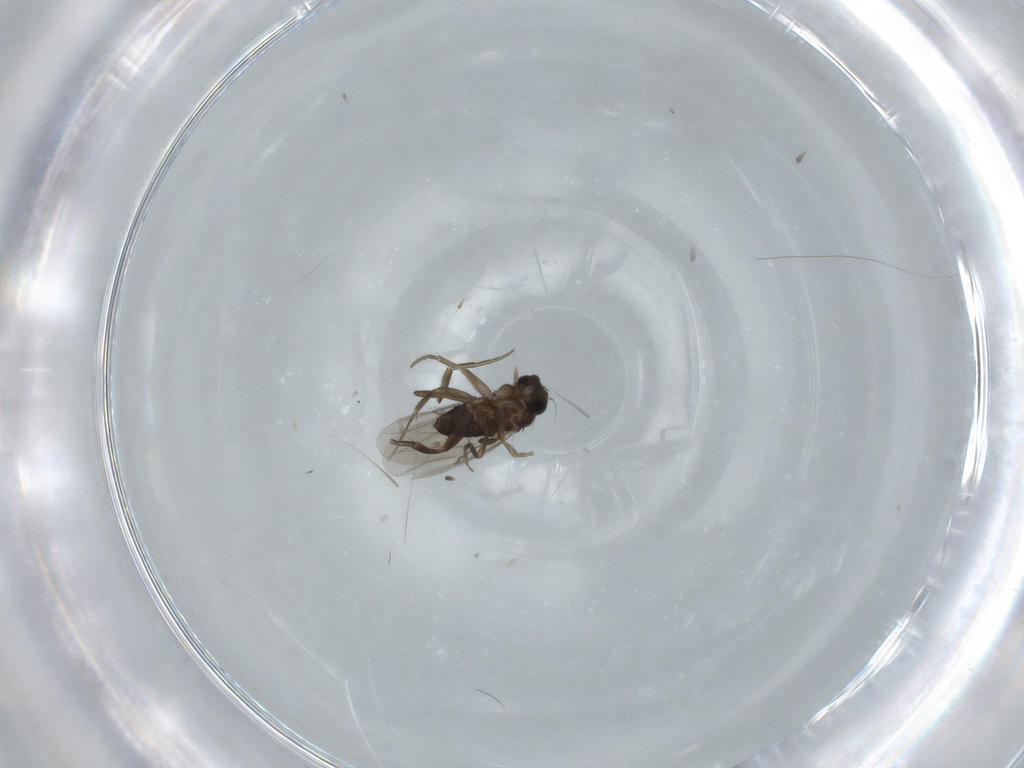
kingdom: Animalia
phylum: Arthropoda
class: Insecta
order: Diptera
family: Phoridae
